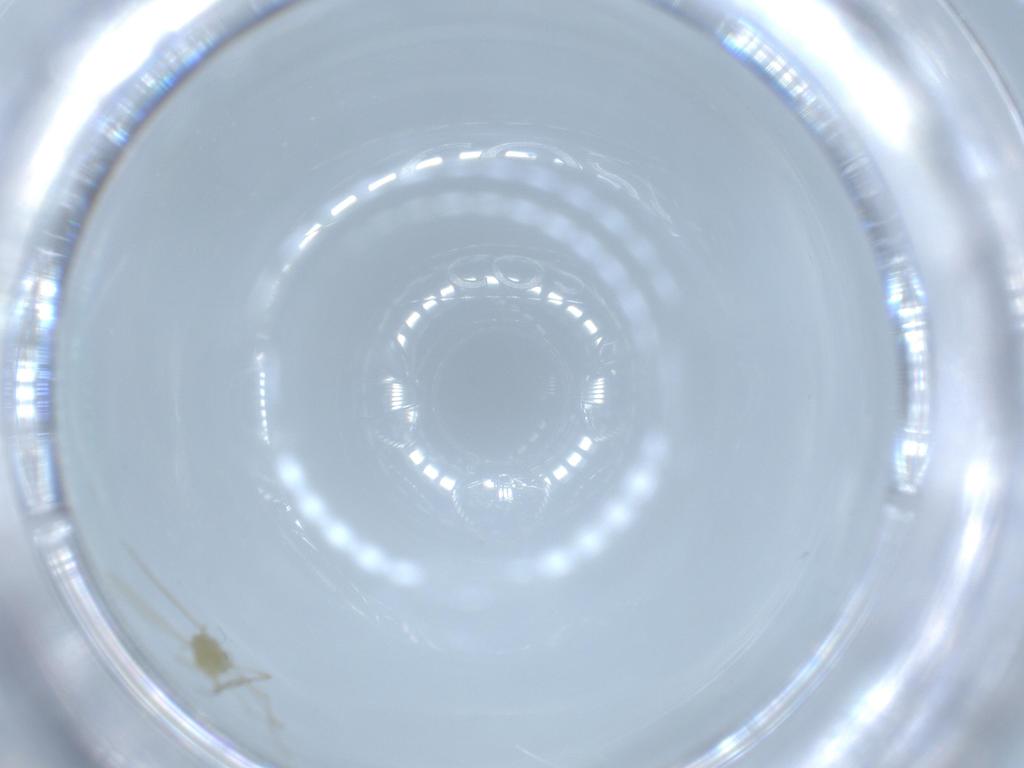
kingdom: Animalia
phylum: Arthropoda
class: Insecta
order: Diptera
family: Chironomidae
